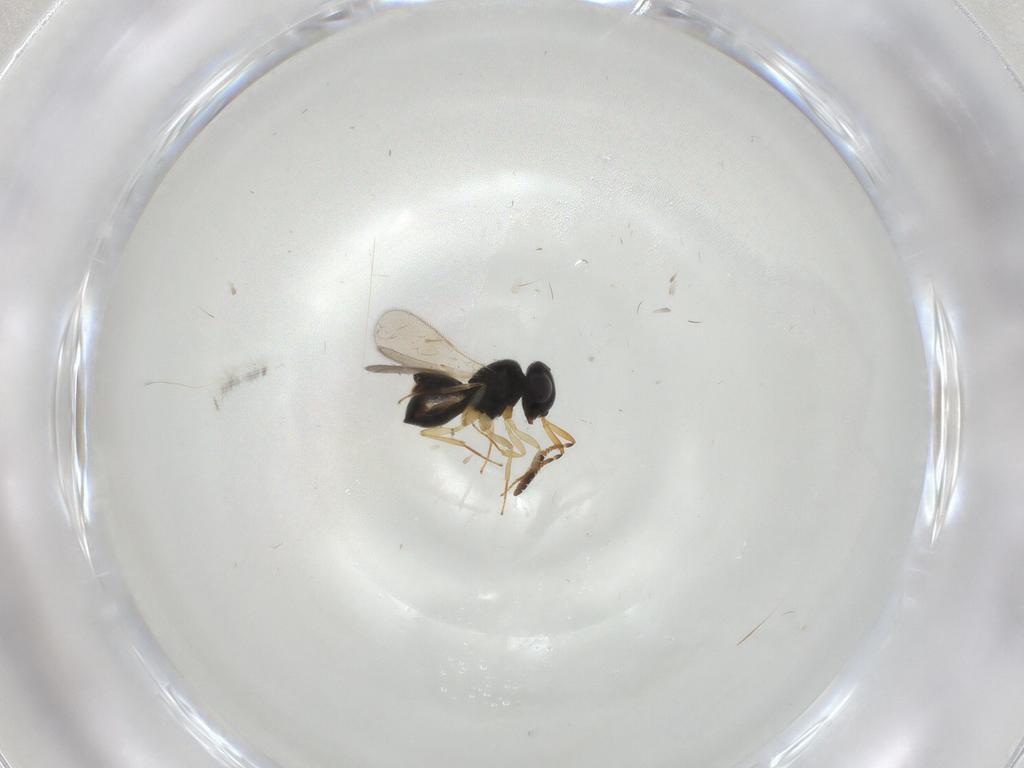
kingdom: Animalia
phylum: Arthropoda
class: Insecta
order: Hymenoptera
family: Scelionidae
